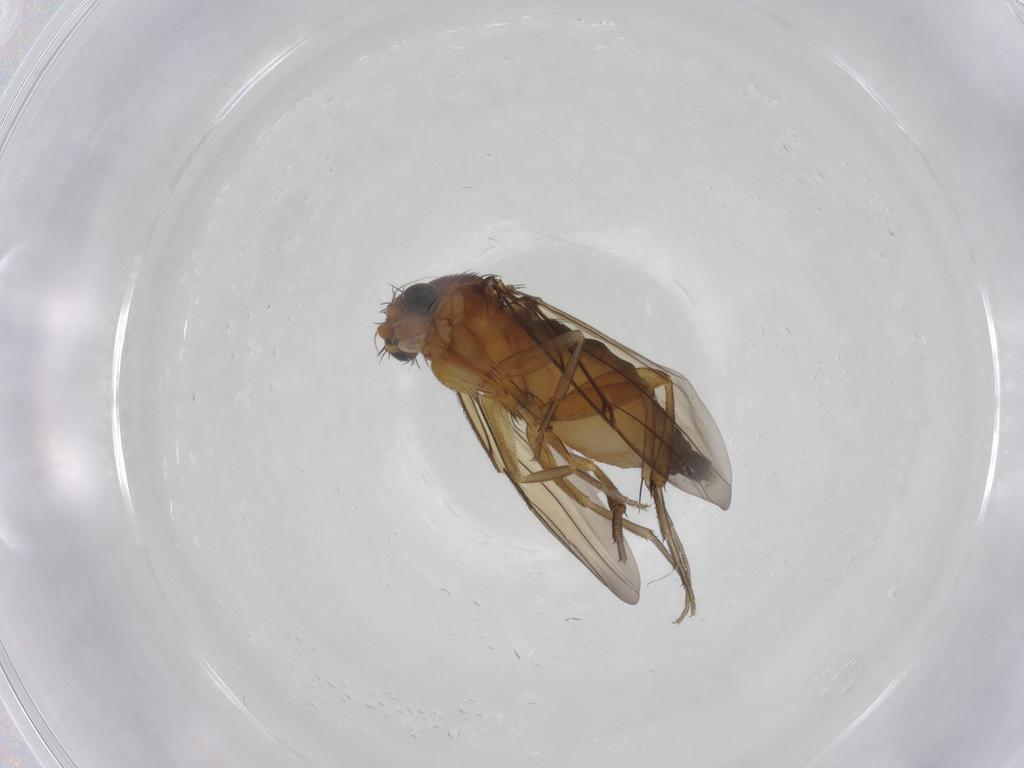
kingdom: Animalia
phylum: Arthropoda
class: Insecta
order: Diptera
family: Phoridae
